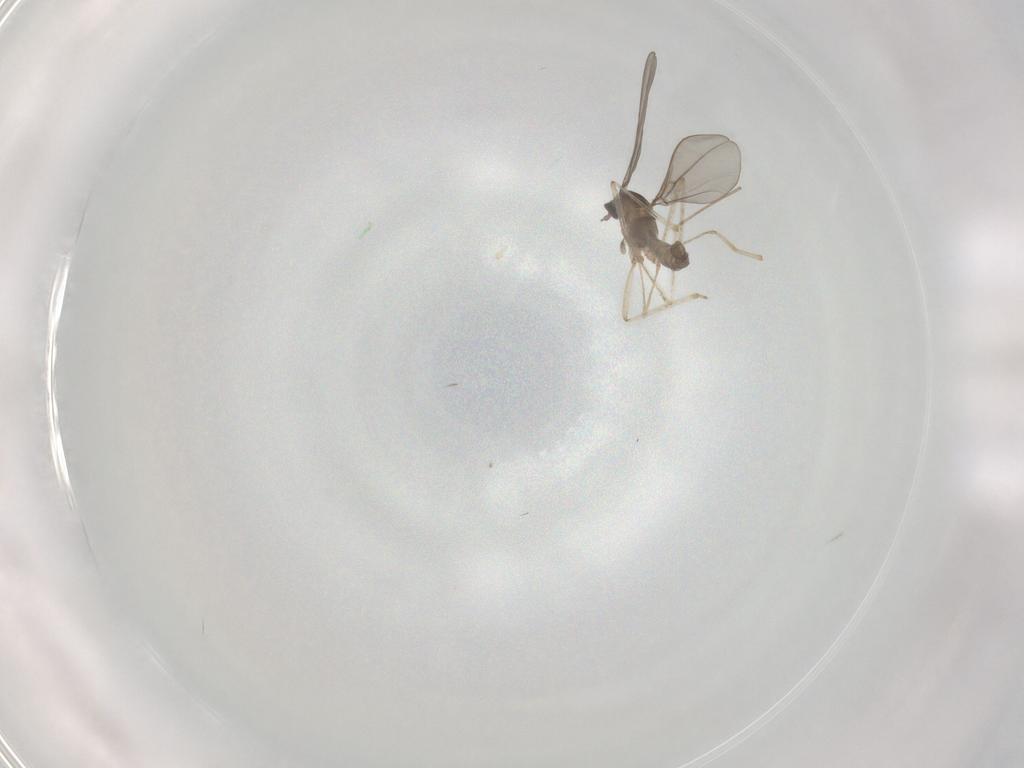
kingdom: Animalia
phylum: Arthropoda
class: Insecta
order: Diptera
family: Cecidomyiidae
